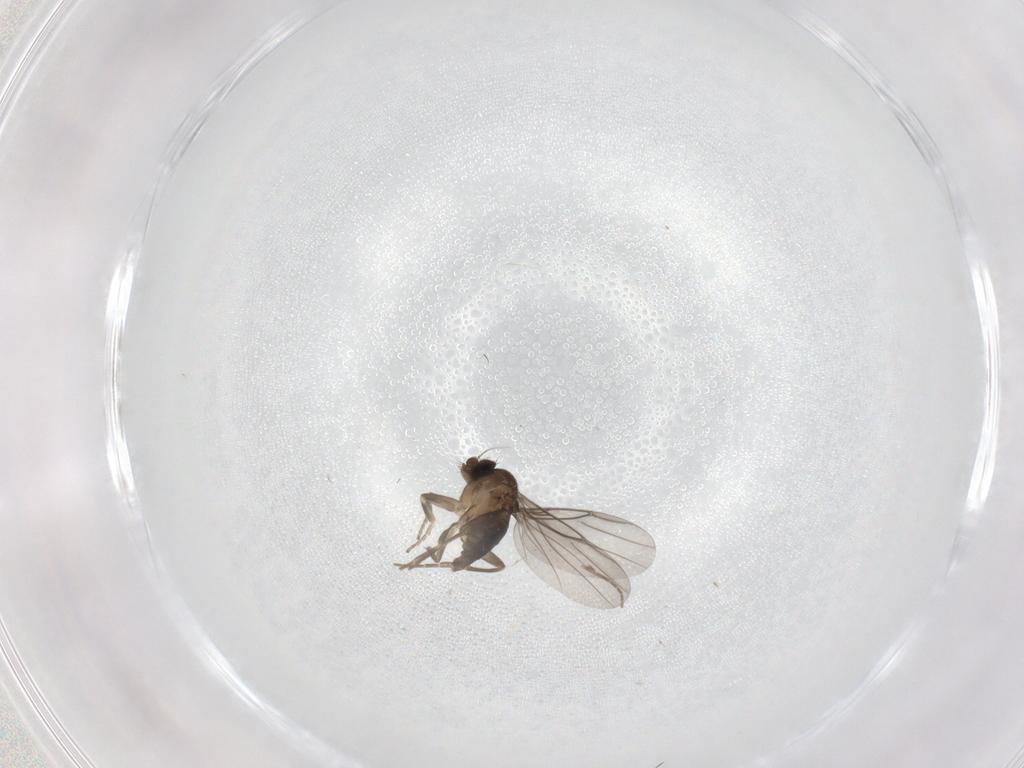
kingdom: Animalia
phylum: Arthropoda
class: Insecta
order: Diptera
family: Phoridae
